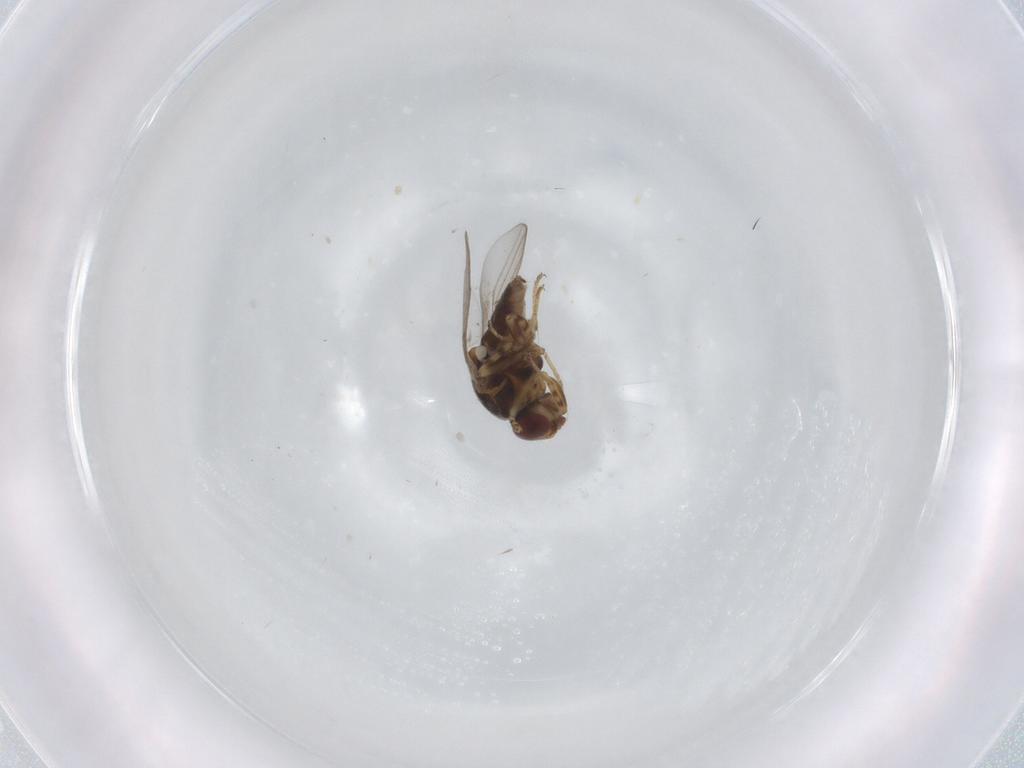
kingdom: Animalia
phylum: Arthropoda
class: Insecta
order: Diptera
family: Chloropidae
